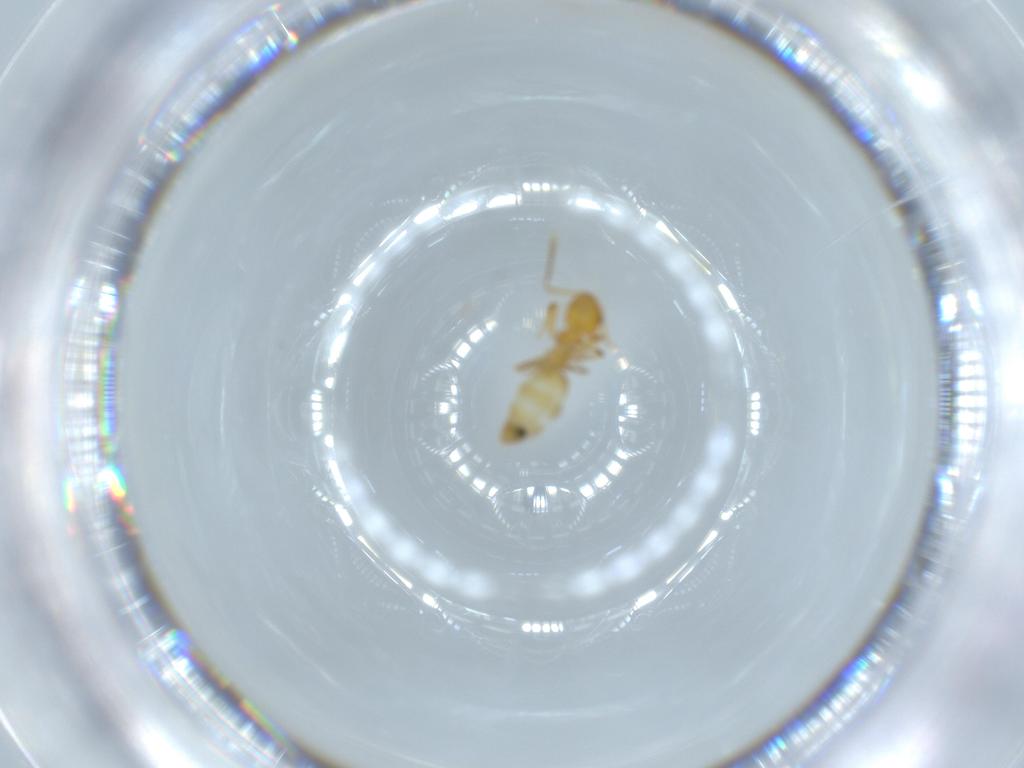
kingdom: Animalia
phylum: Arthropoda
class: Insecta
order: Hymenoptera
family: Formicidae
